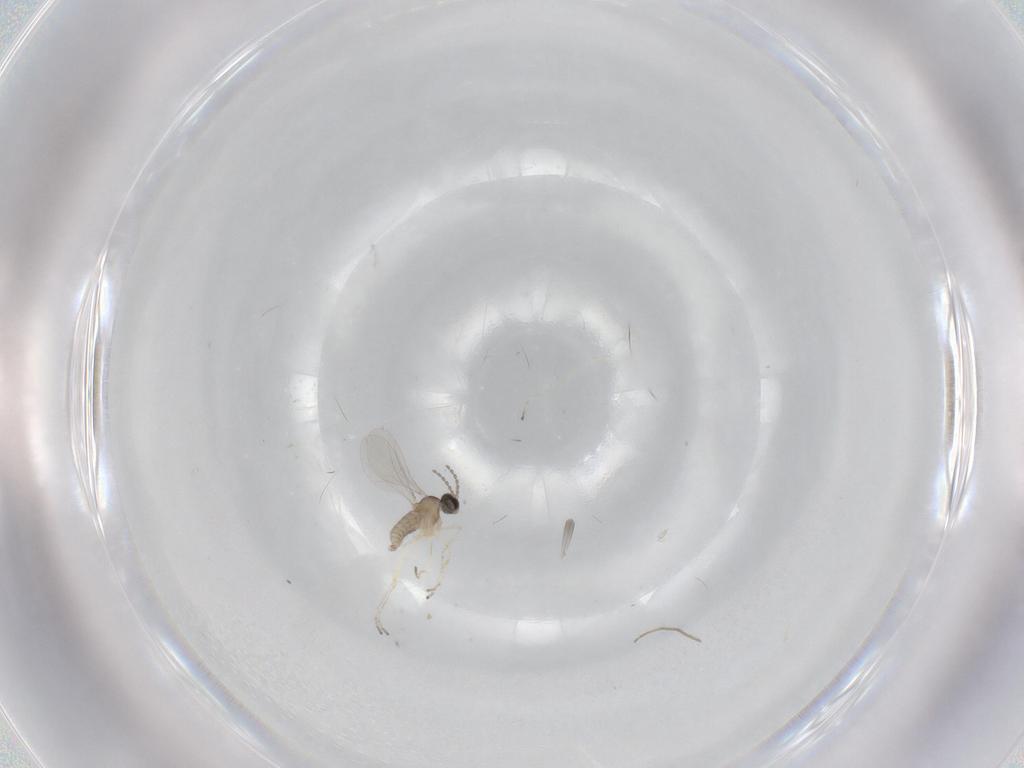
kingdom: Animalia
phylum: Arthropoda
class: Insecta
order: Diptera
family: Cecidomyiidae
